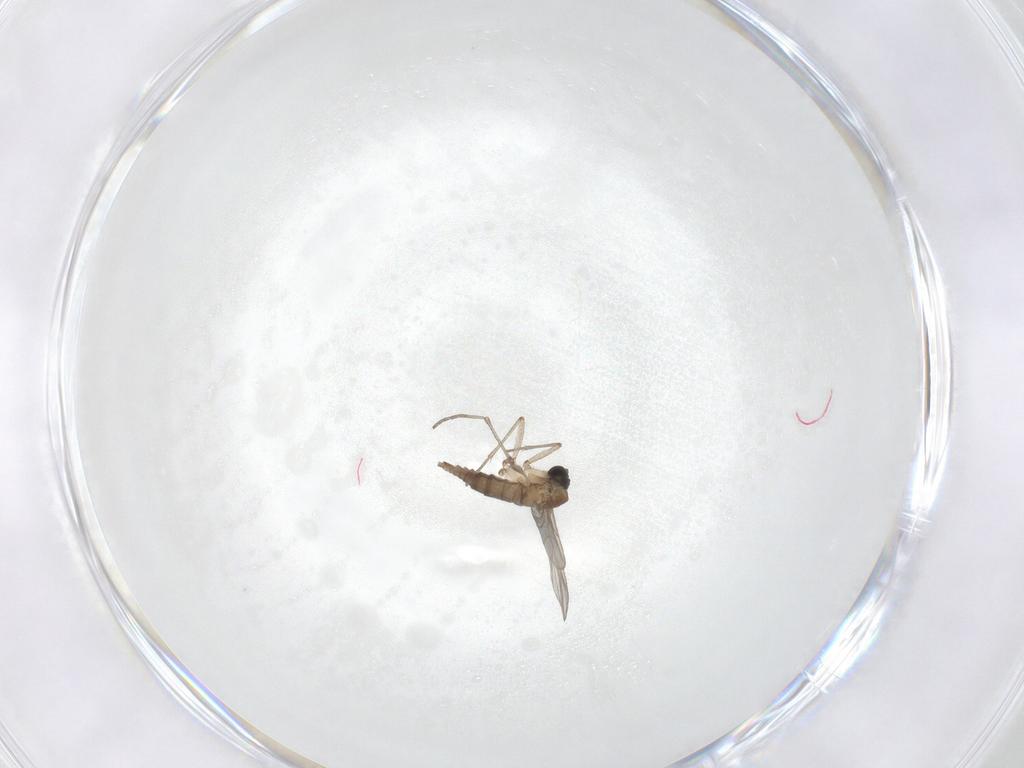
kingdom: Animalia
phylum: Arthropoda
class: Insecta
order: Diptera
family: Sciaridae
